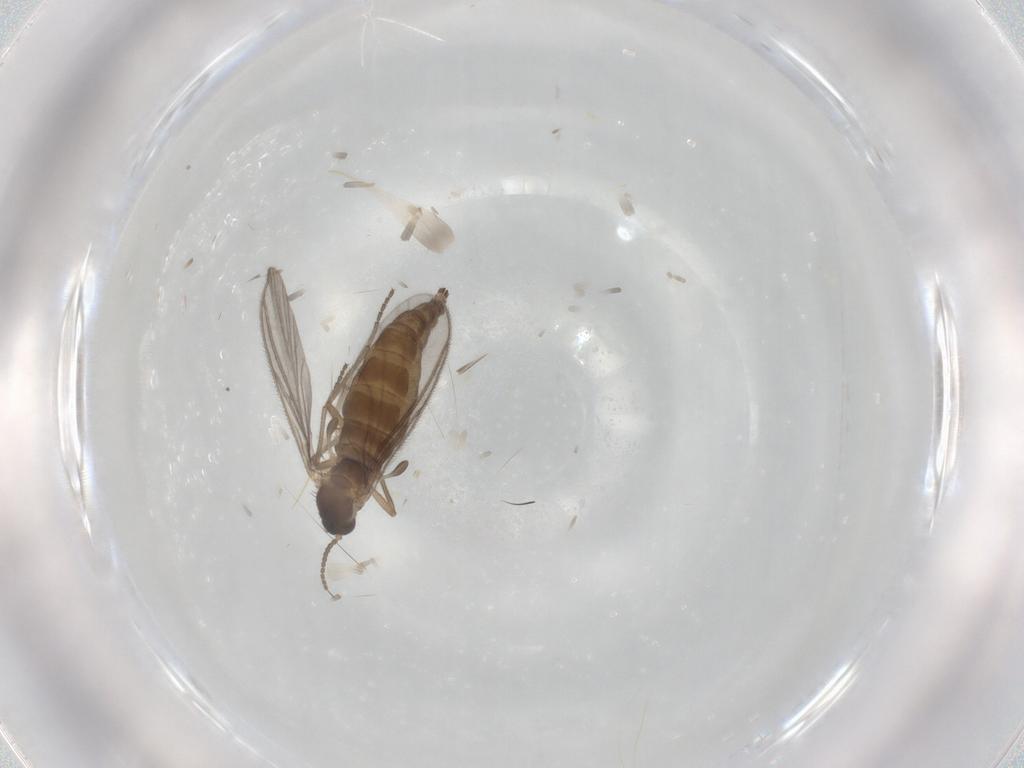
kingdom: Animalia
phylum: Arthropoda
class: Insecta
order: Diptera
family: Sciaridae
